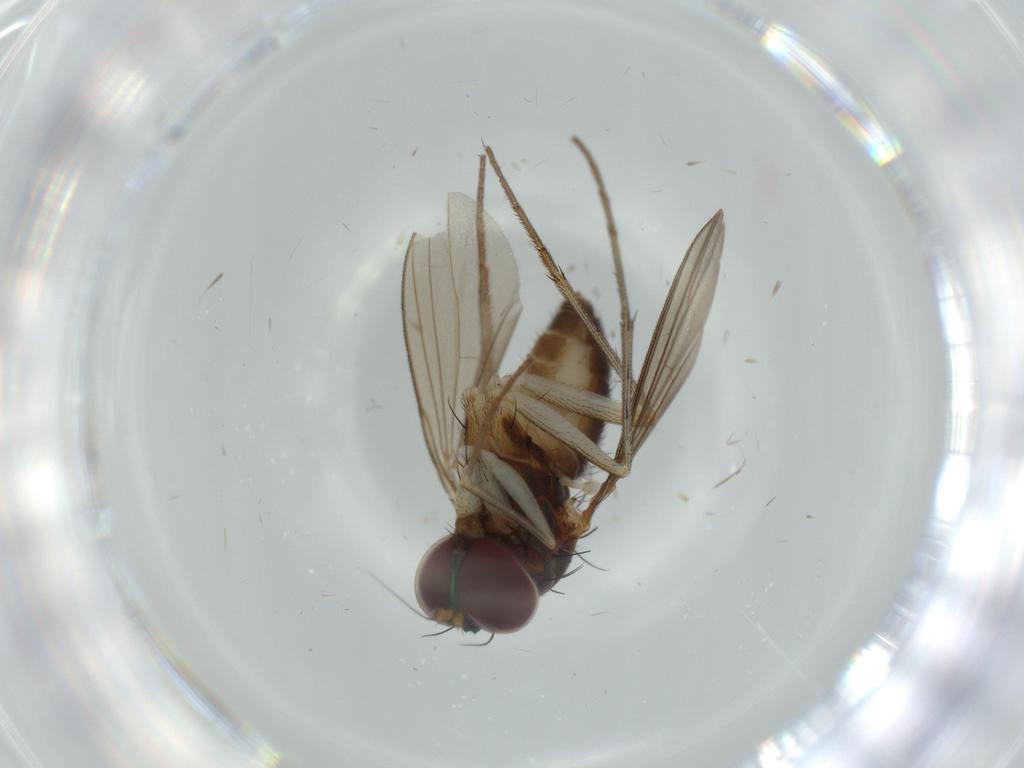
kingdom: Animalia
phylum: Arthropoda
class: Insecta
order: Diptera
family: Dolichopodidae
